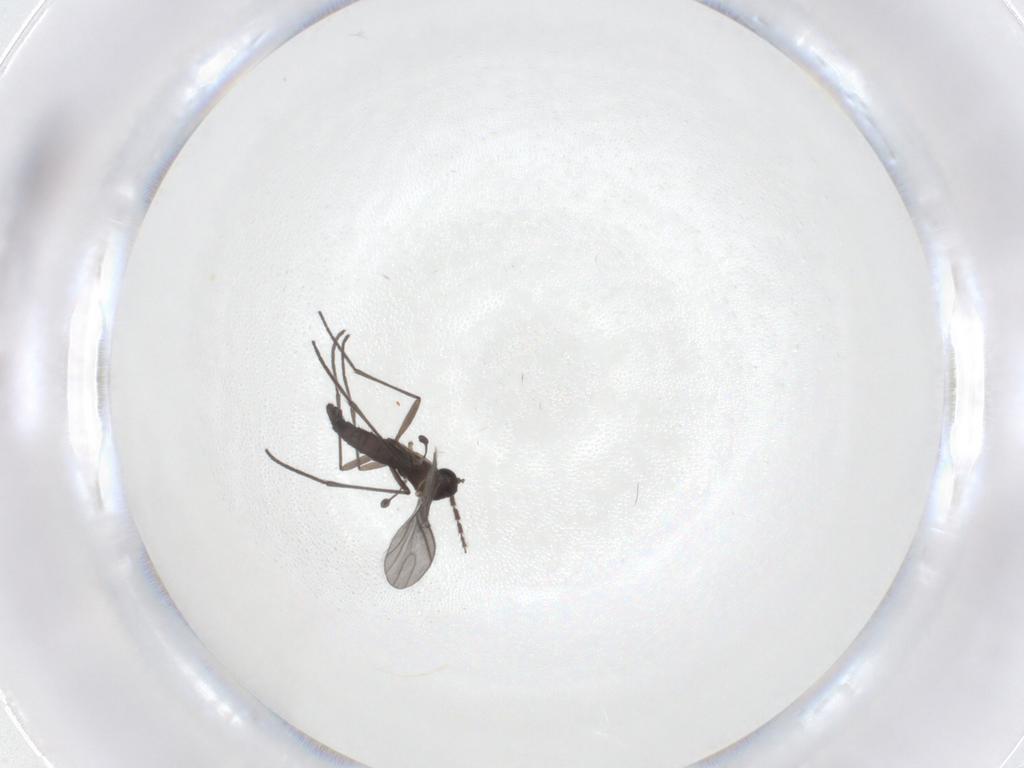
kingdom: Animalia
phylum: Arthropoda
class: Insecta
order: Diptera
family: Sciaridae
